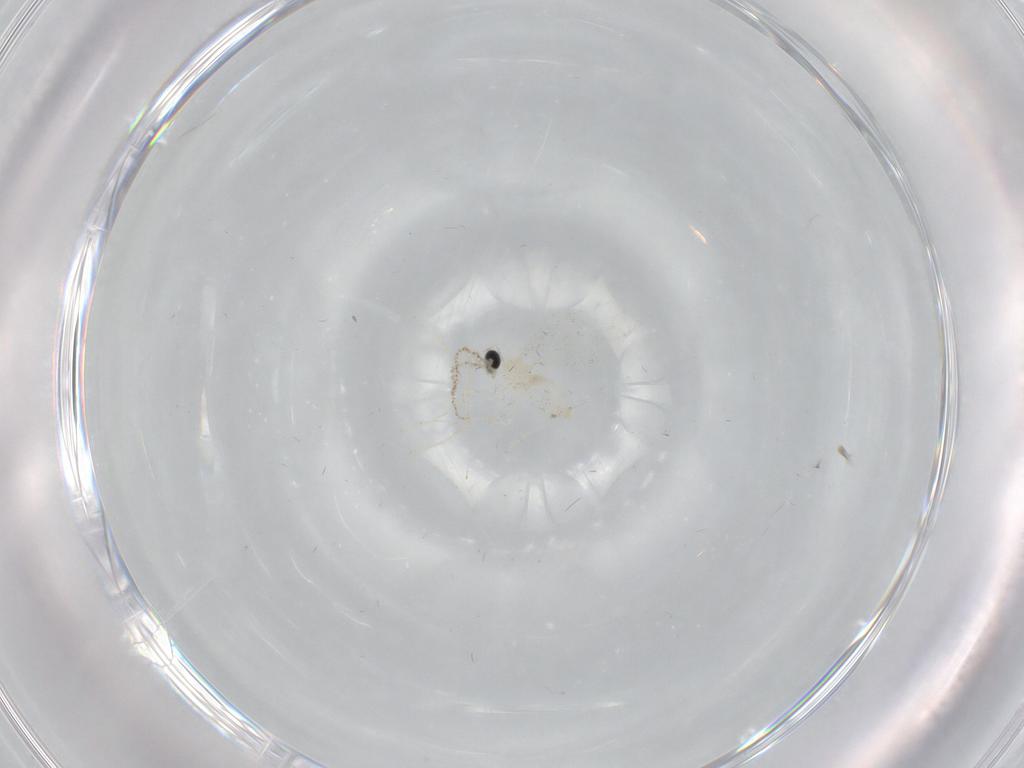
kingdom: Animalia
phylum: Arthropoda
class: Insecta
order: Diptera
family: Cecidomyiidae
